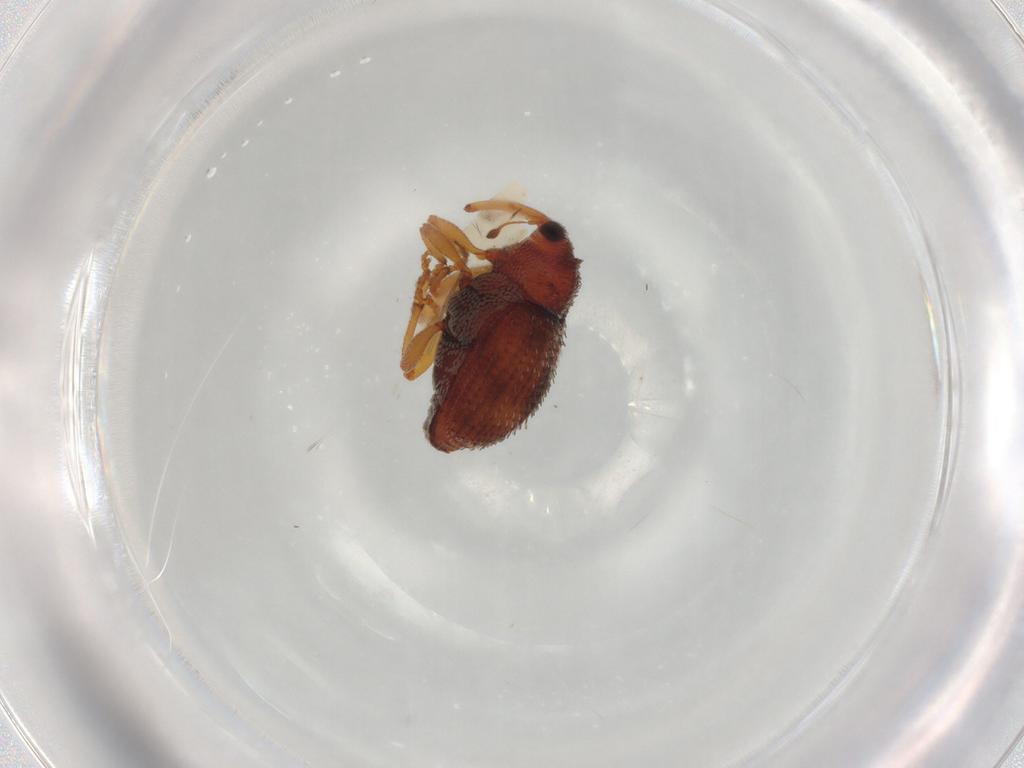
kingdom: Animalia
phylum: Arthropoda
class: Insecta
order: Coleoptera
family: Curculionidae
